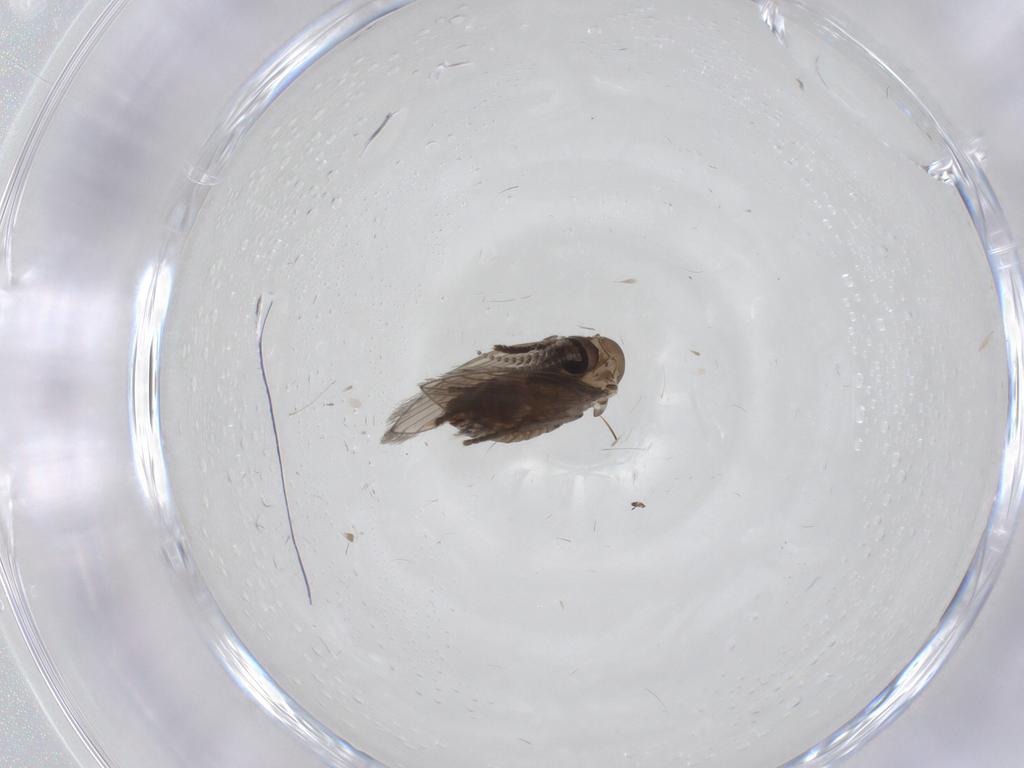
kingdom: Animalia
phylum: Arthropoda
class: Insecta
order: Diptera
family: Psychodidae
